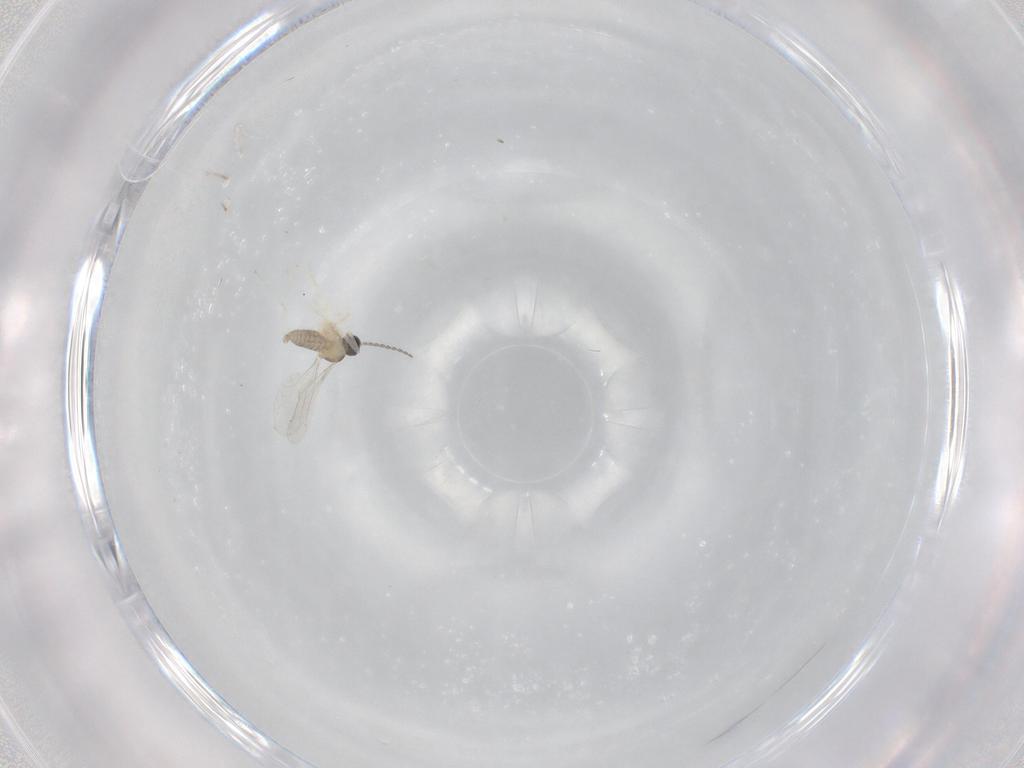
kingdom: Animalia
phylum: Arthropoda
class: Insecta
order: Diptera
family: Cecidomyiidae
